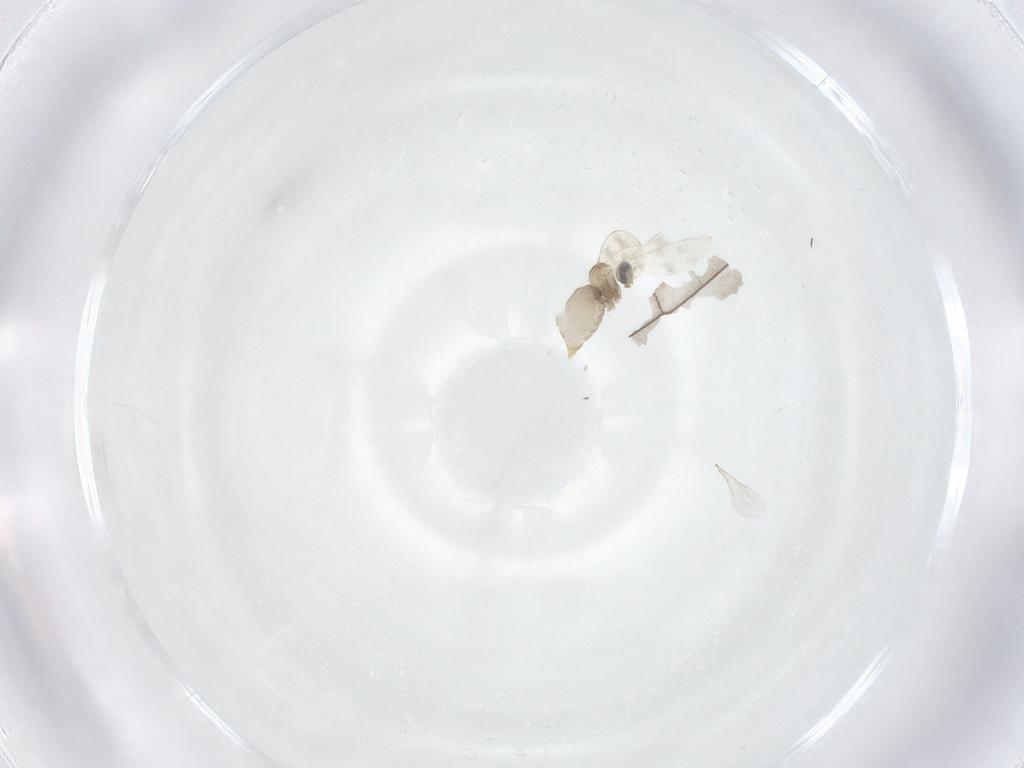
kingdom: Animalia
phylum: Arthropoda
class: Insecta
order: Diptera
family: Cecidomyiidae
